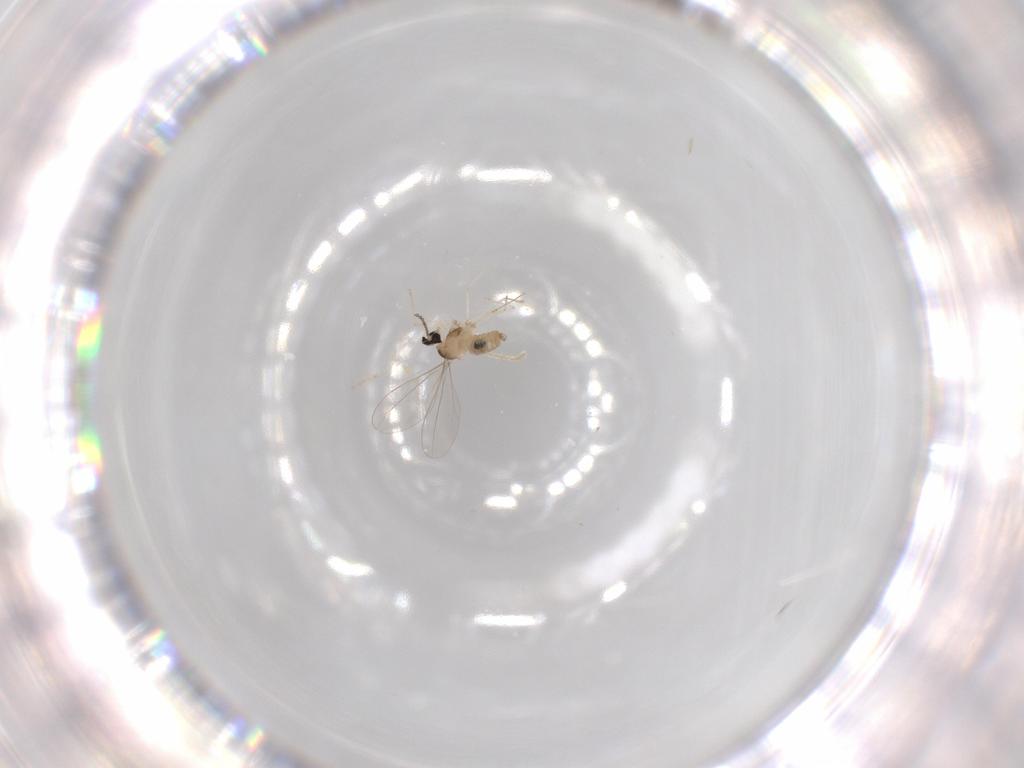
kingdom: Animalia
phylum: Arthropoda
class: Insecta
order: Diptera
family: Cecidomyiidae
